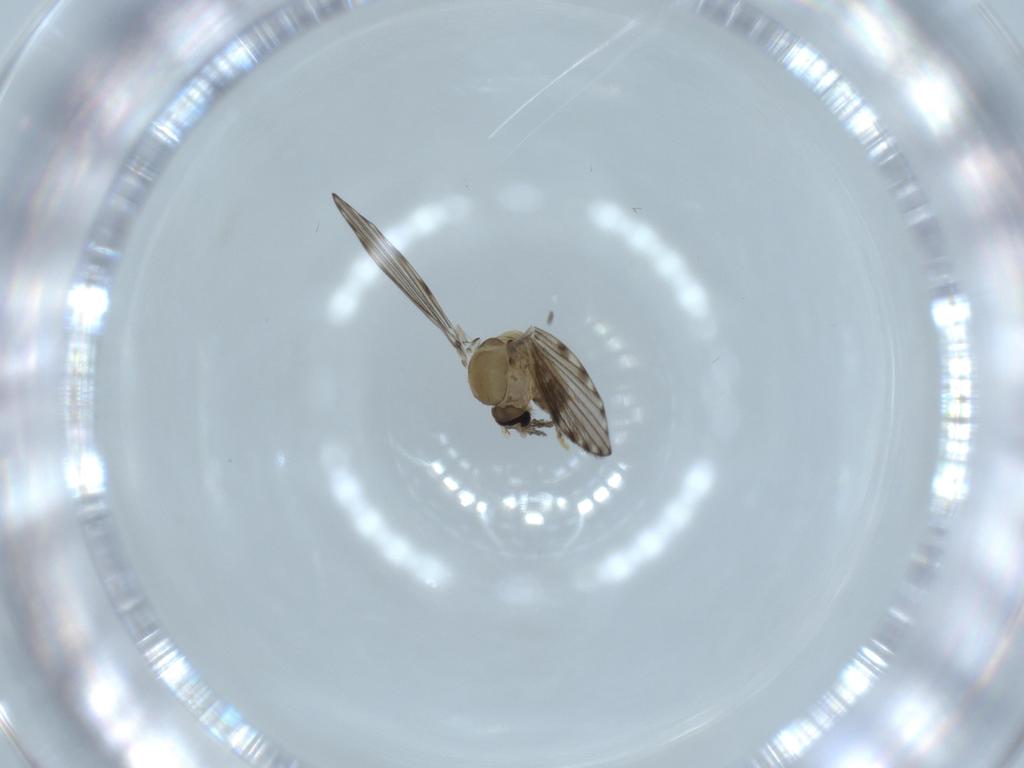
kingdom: Animalia
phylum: Arthropoda
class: Insecta
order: Diptera
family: Psychodidae
